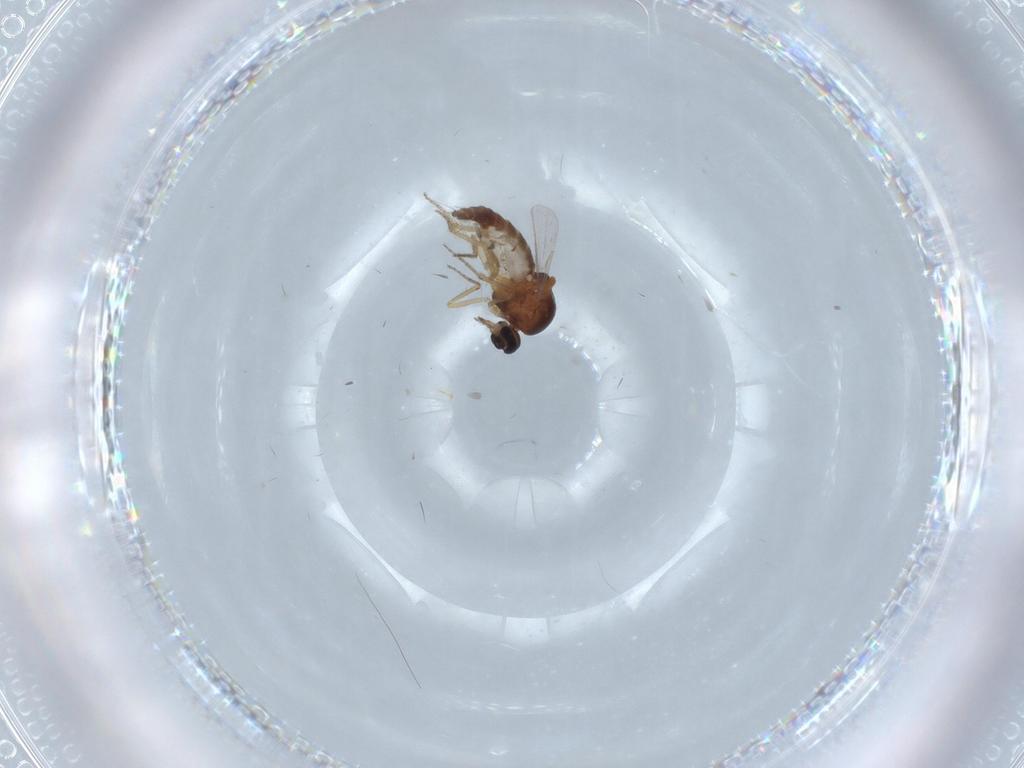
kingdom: Animalia
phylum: Arthropoda
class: Insecta
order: Diptera
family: Ceratopogonidae
